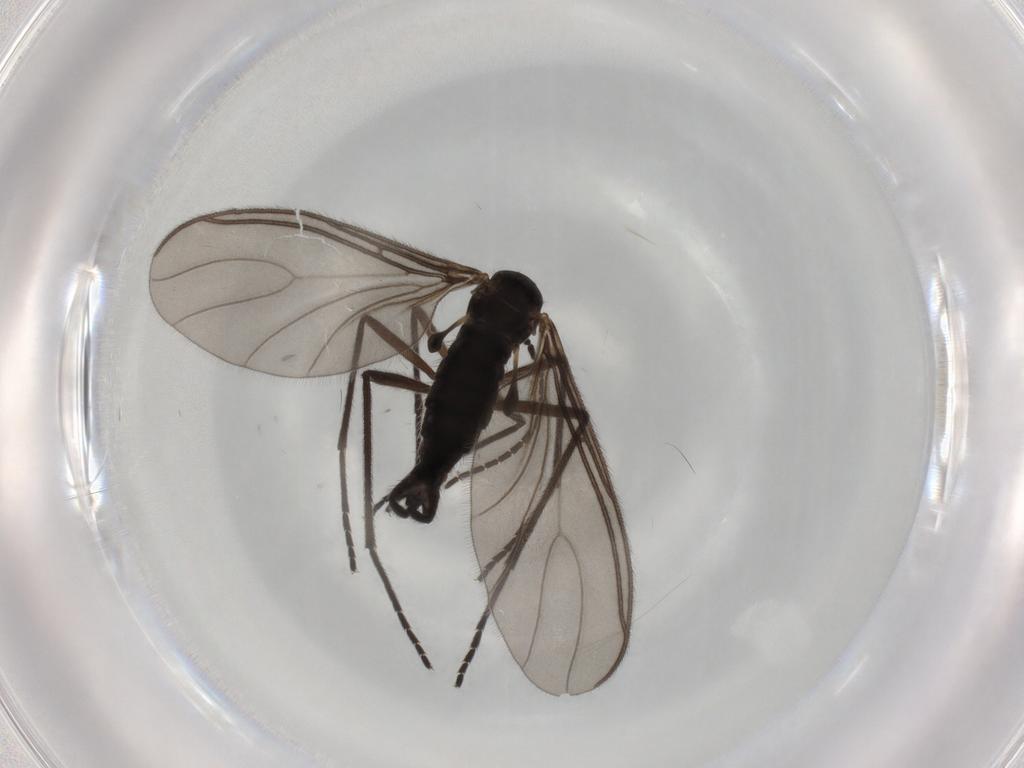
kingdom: Animalia
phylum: Arthropoda
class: Insecta
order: Diptera
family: Sciaridae
